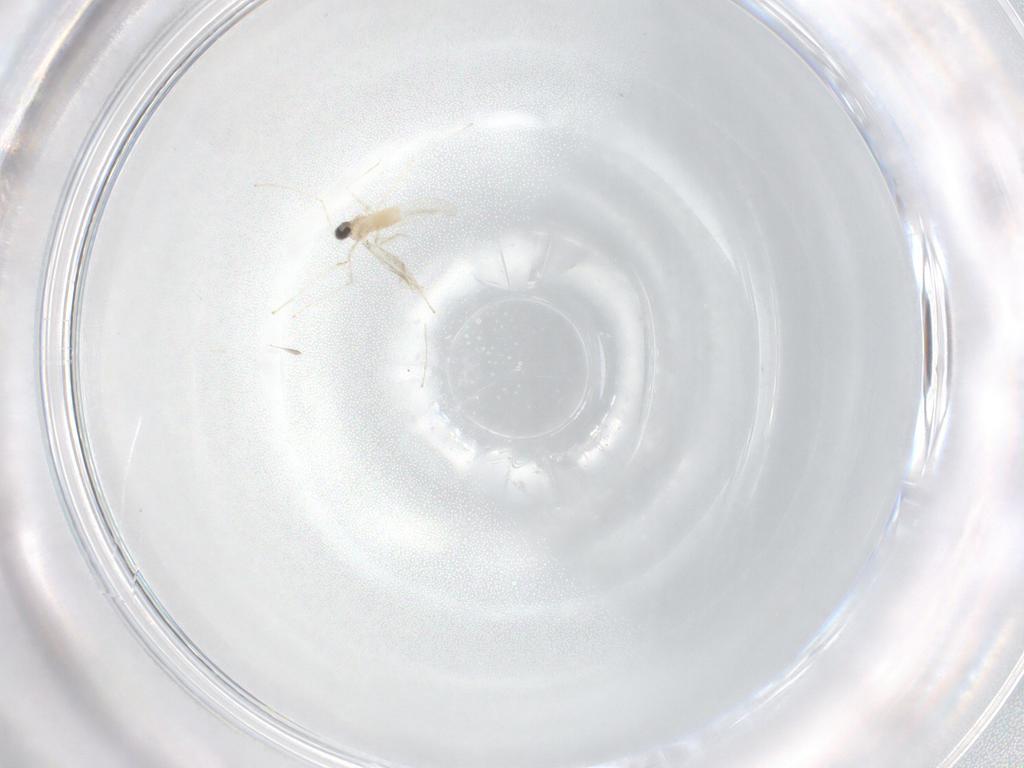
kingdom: Animalia
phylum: Arthropoda
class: Insecta
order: Diptera
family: Cecidomyiidae
